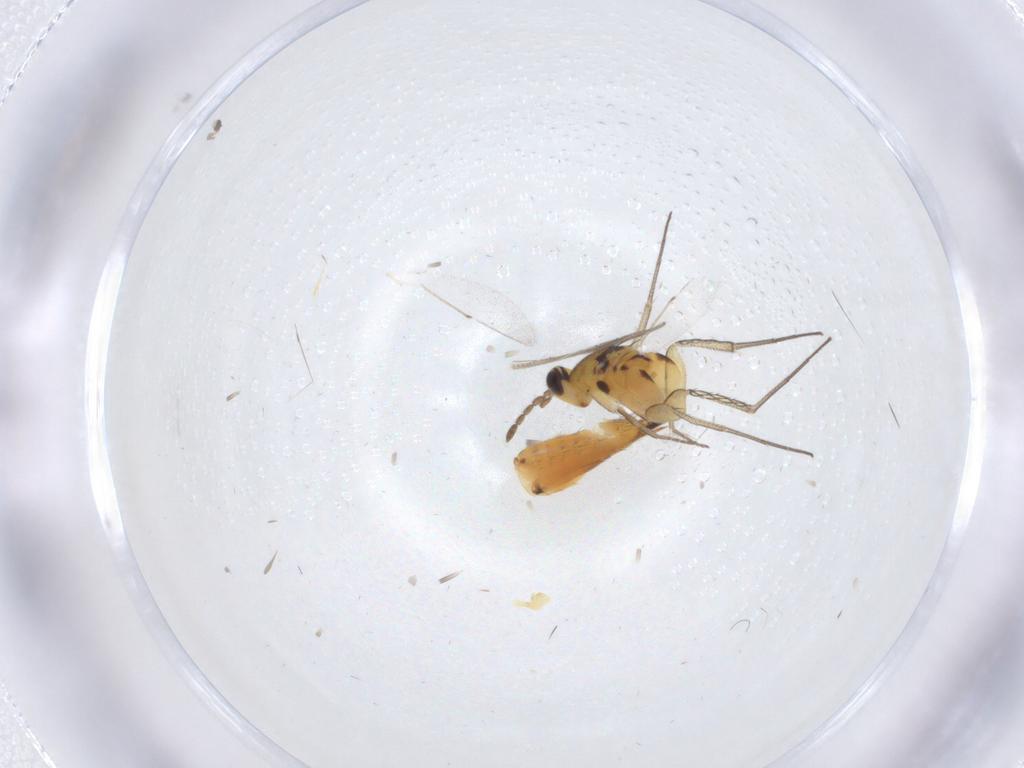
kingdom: Animalia
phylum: Arthropoda
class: Insecta
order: Hymenoptera
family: Eulophidae
